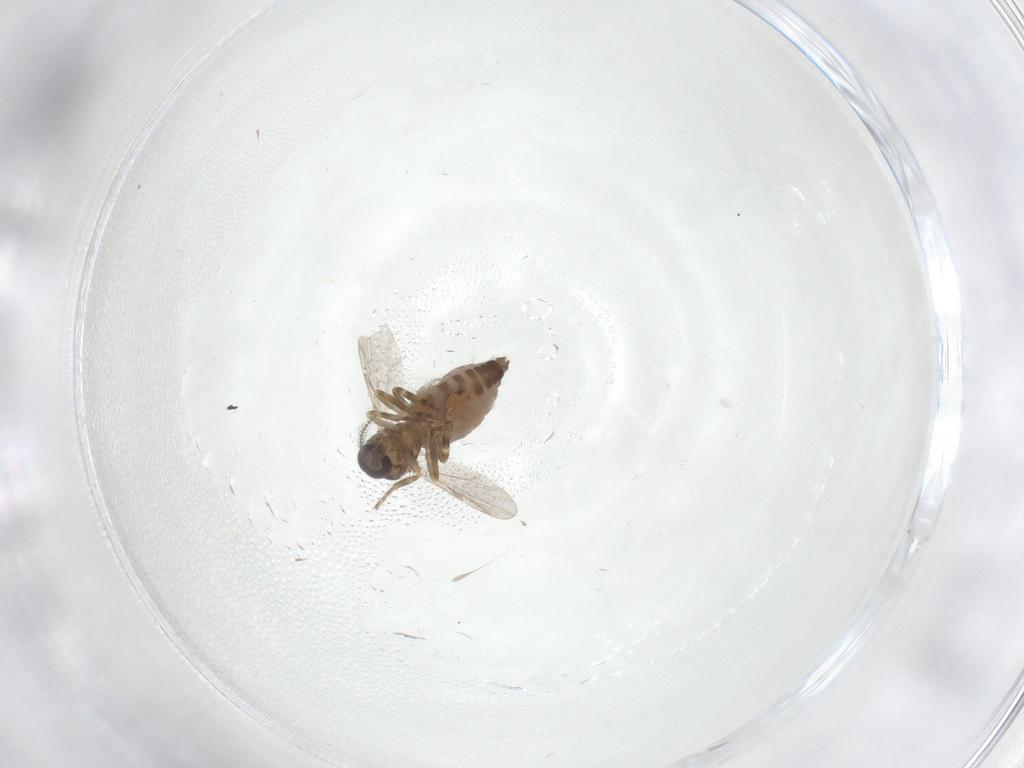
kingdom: Animalia
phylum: Arthropoda
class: Insecta
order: Diptera
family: Ceratopogonidae
